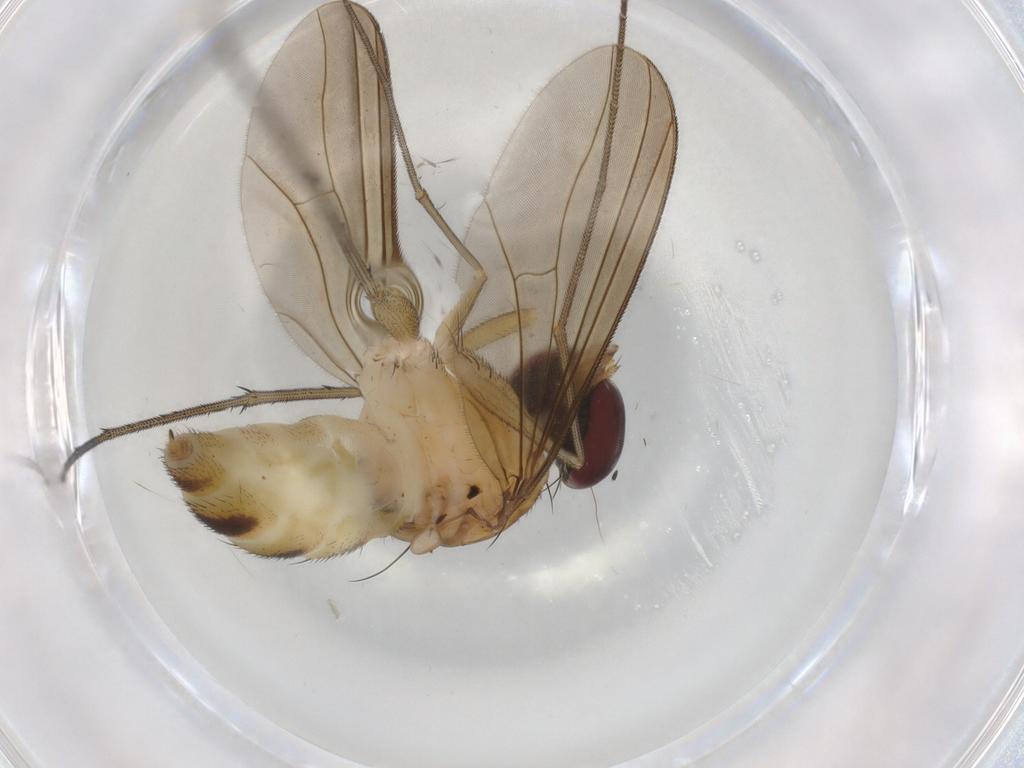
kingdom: Animalia
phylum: Arthropoda
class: Insecta
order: Diptera
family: Dolichopodidae
